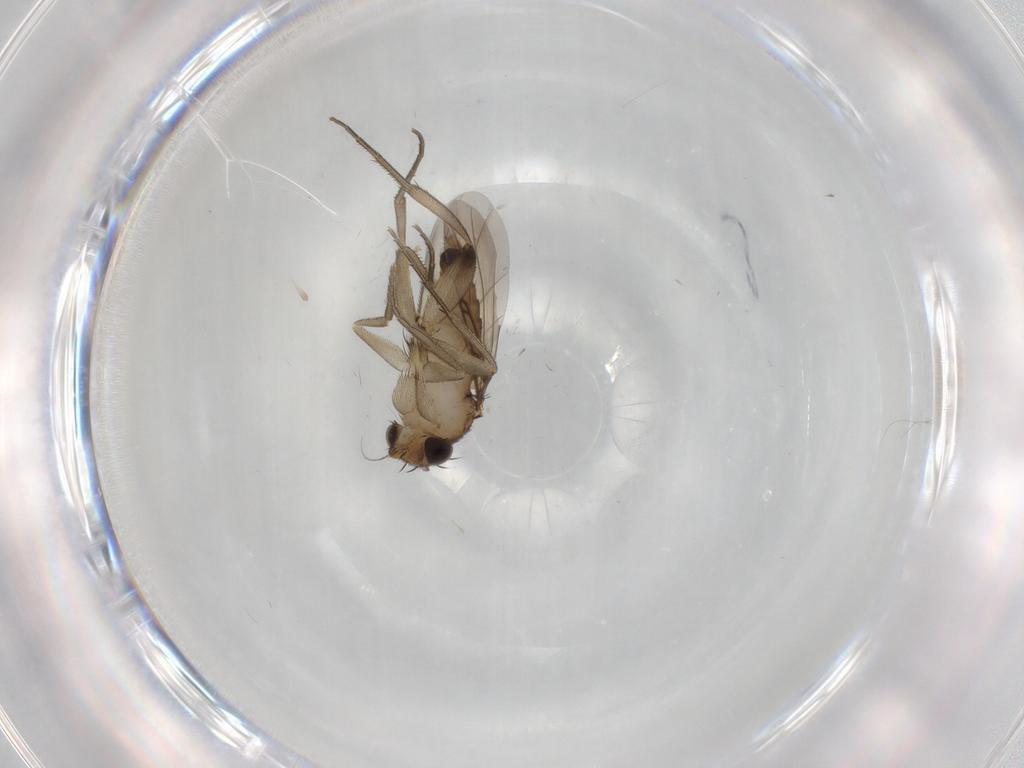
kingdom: Animalia
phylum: Arthropoda
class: Insecta
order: Diptera
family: Phoridae
